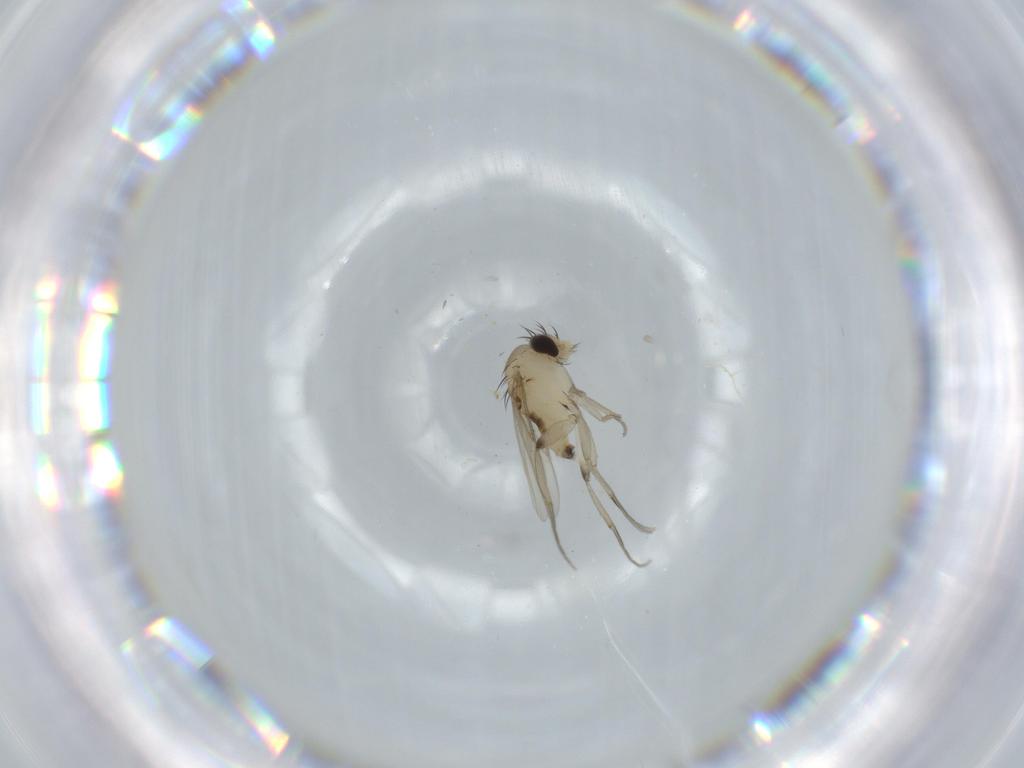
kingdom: Animalia
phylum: Arthropoda
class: Insecta
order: Diptera
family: Phoridae
